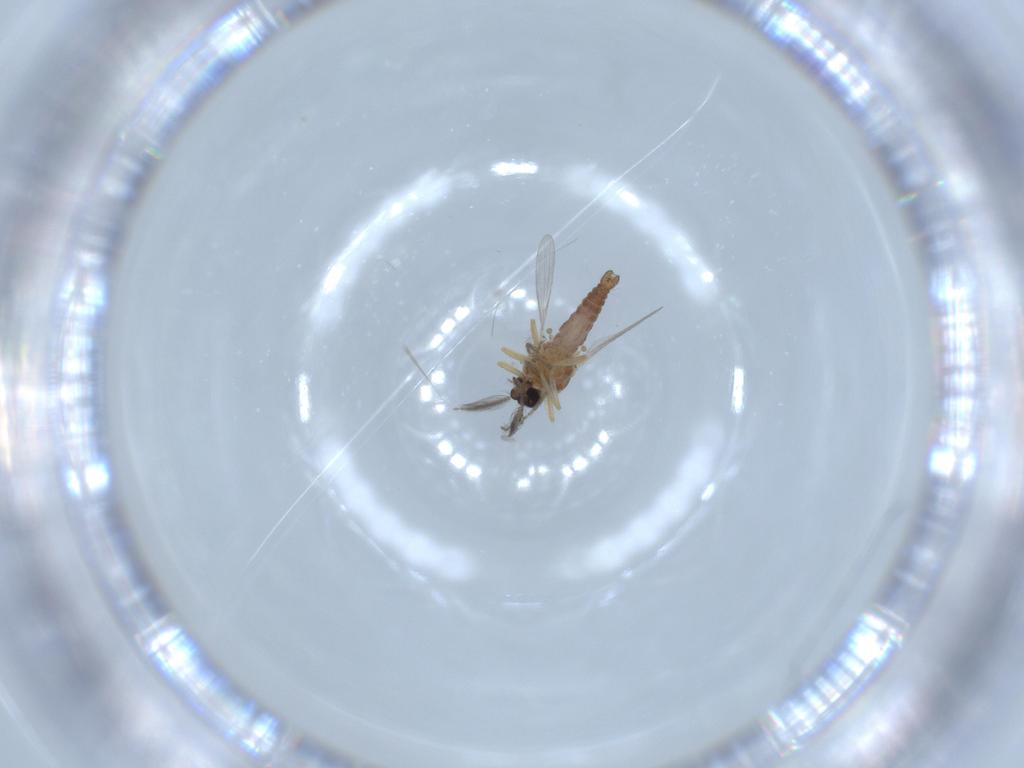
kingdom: Animalia
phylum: Arthropoda
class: Insecta
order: Diptera
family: Ceratopogonidae
